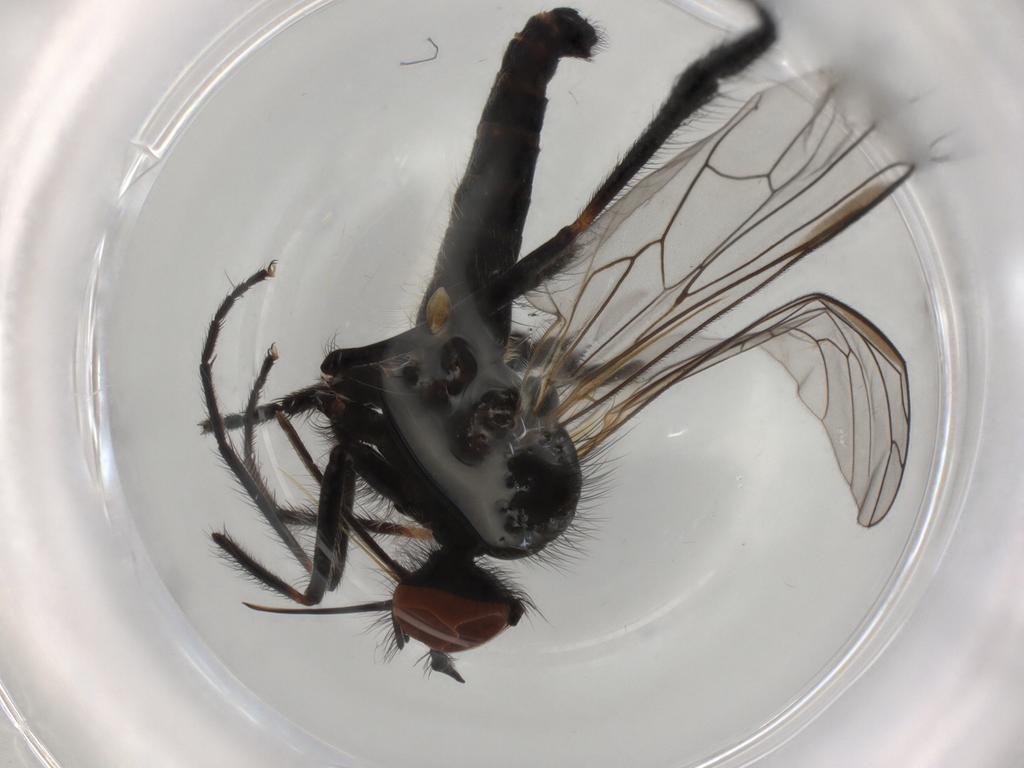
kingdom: Animalia
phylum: Arthropoda
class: Insecta
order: Diptera
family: Empididae
